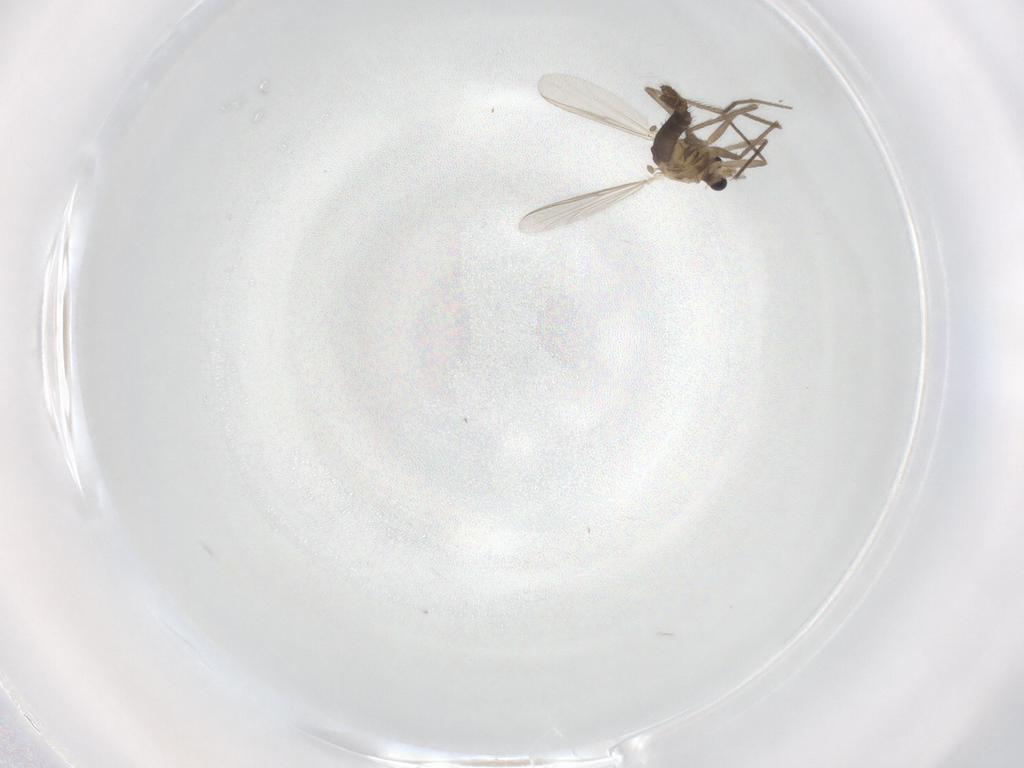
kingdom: Animalia
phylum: Arthropoda
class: Insecta
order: Diptera
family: Chironomidae
